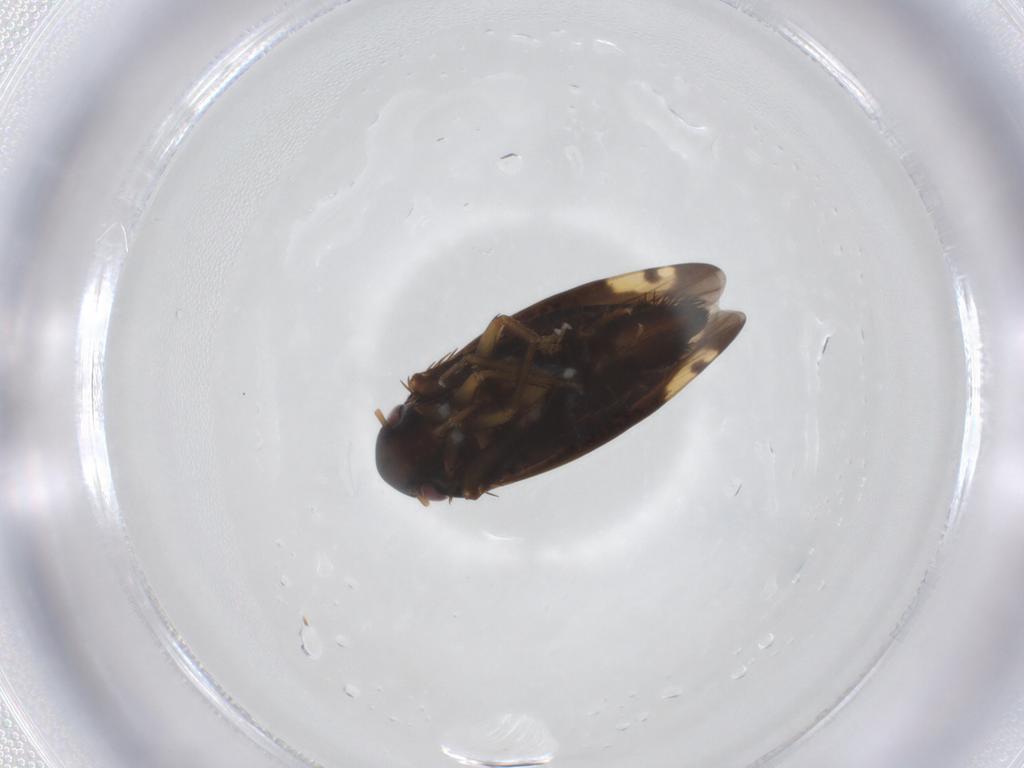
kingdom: Animalia
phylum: Arthropoda
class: Insecta
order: Hemiptera
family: Cicadellidae
